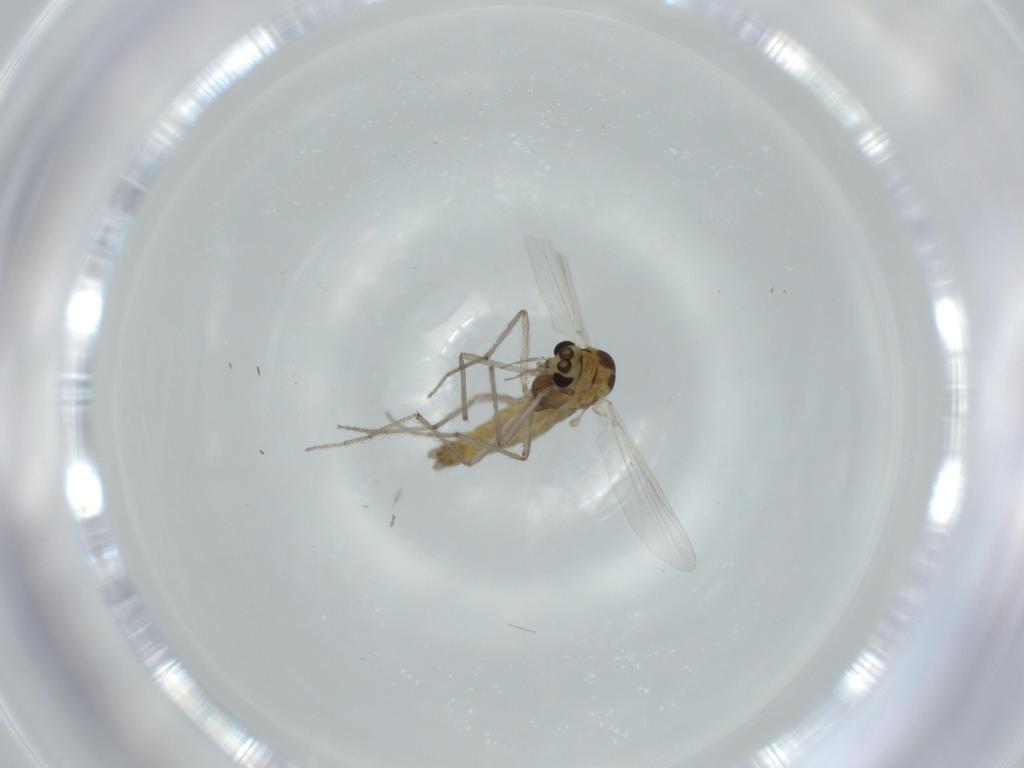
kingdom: Animalia
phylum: Arthropoda
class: Insecta
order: Diptera
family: Chironomidae
